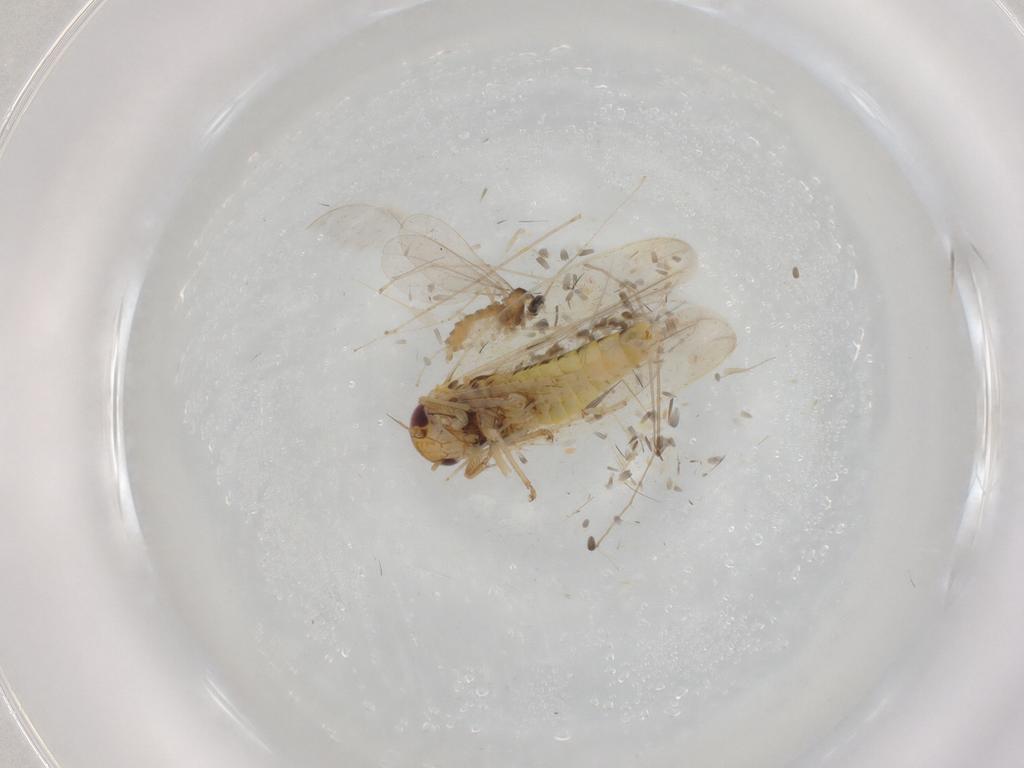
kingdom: Animalia
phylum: Arthropoda
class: Insecta
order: Diptera
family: Cecidomyiidae
